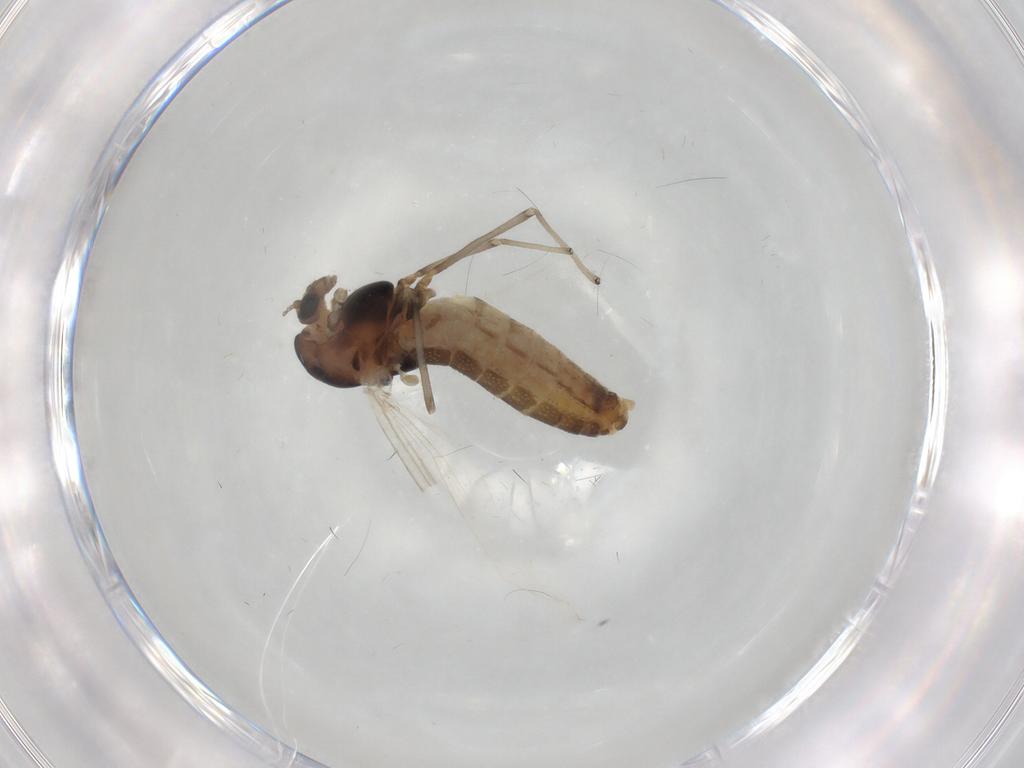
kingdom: Animalia
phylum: Arthropoda
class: Insecta
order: Diptera
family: Chironomidae
